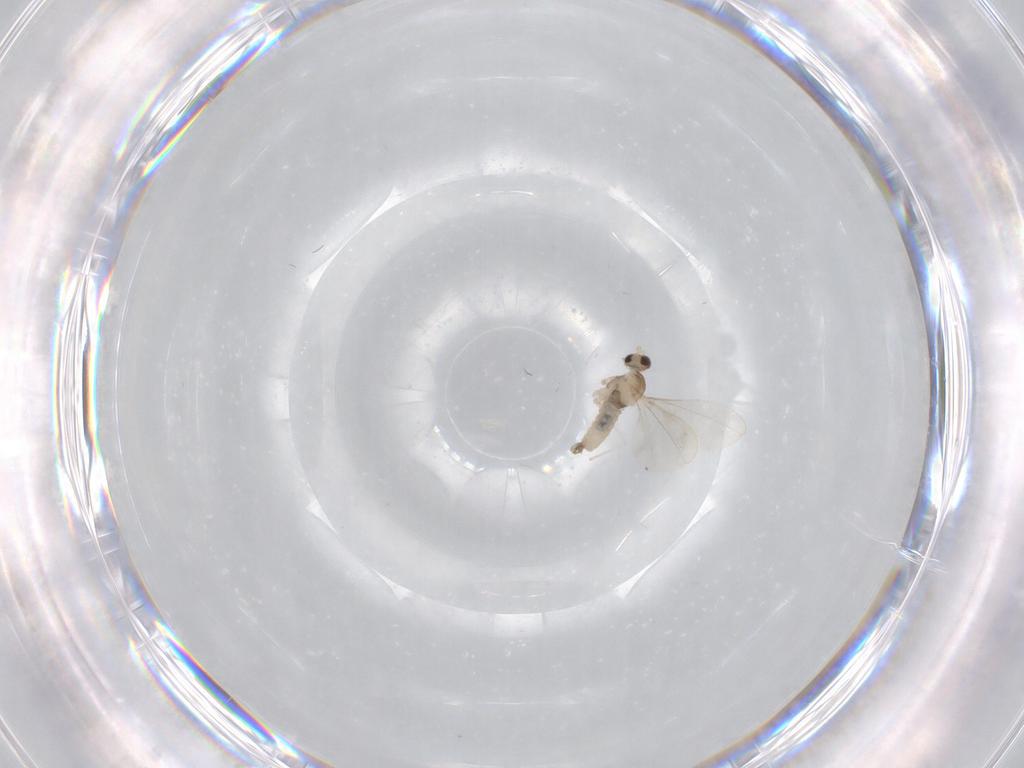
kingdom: Animalia
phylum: Arthropoda
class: Insecta
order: Diptera
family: Cecidomyiidae
